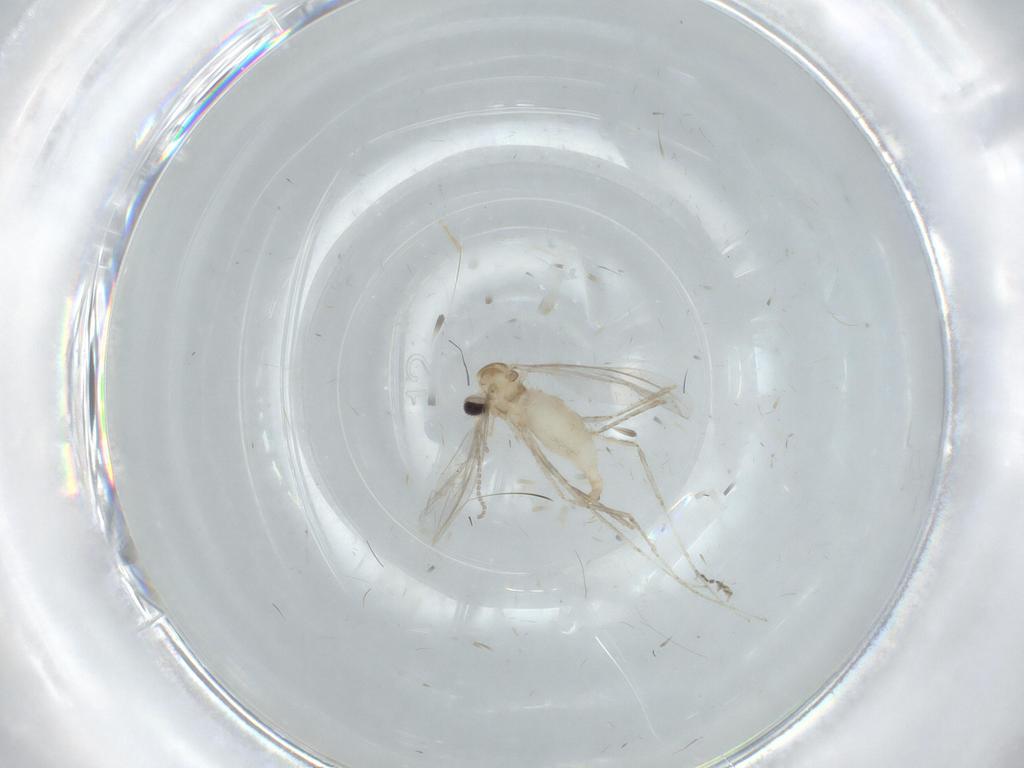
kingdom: Animalia
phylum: Arthropoda
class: Insecta
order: Diptera
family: Cecidomyiidae
